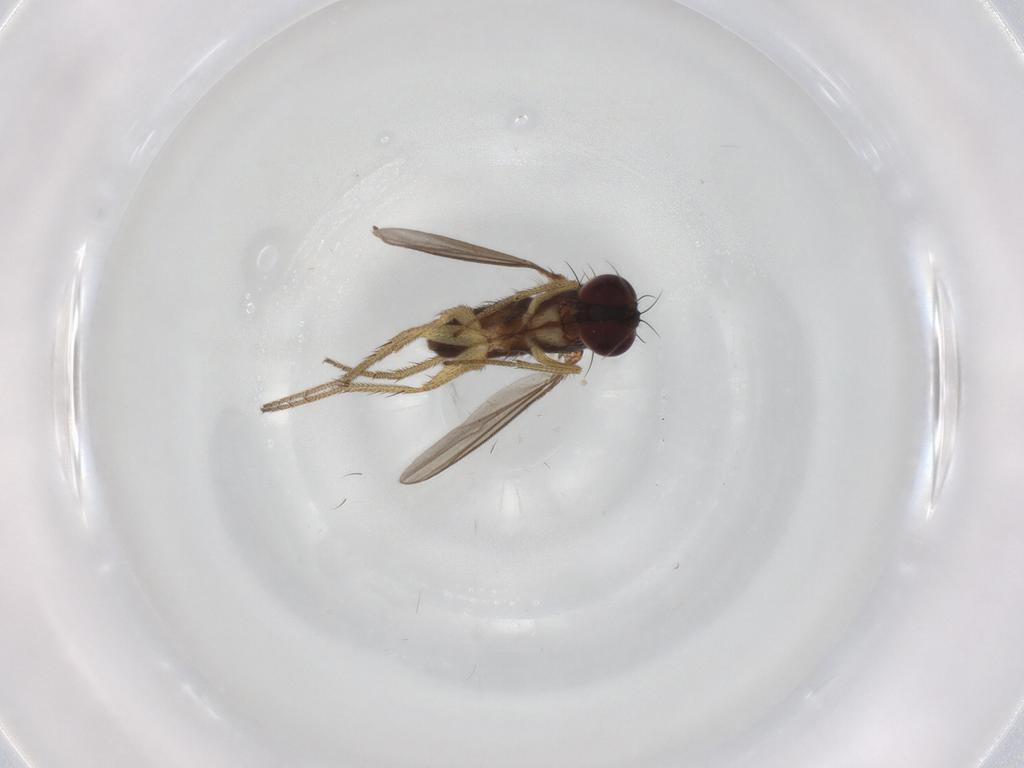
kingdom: Animalia
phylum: Arthropoda
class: Insecta
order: Diptera
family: Dolichopodidae
